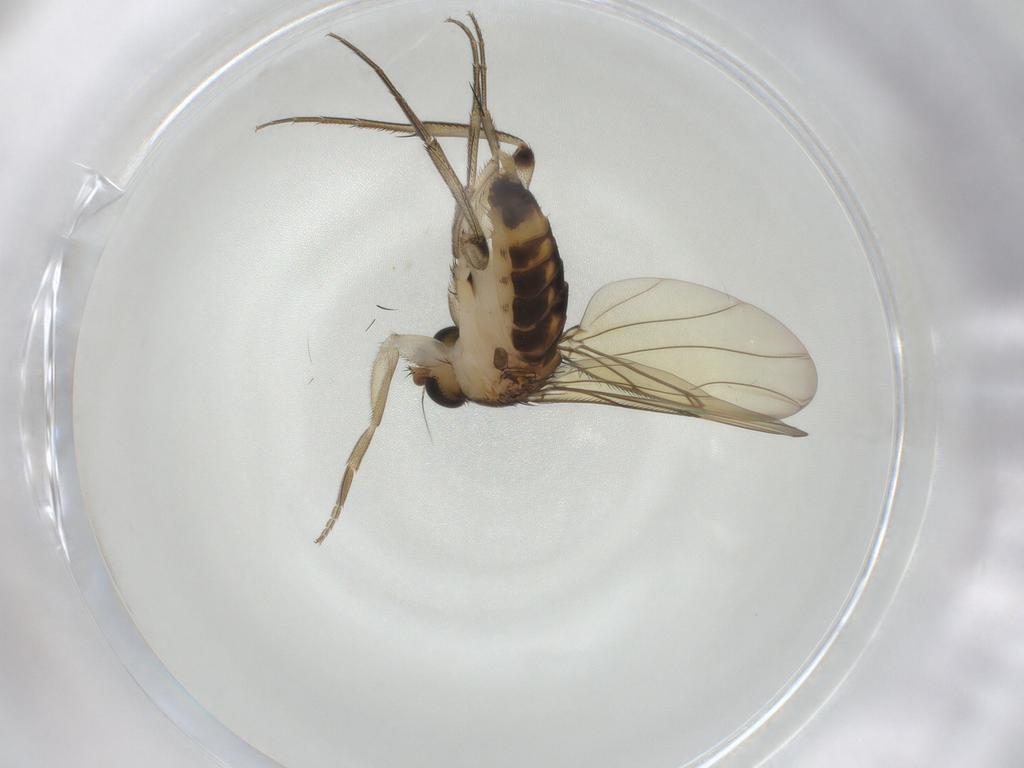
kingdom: Animalia
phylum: Arthropoda
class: Insecta
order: Diptera
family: Phoridae
